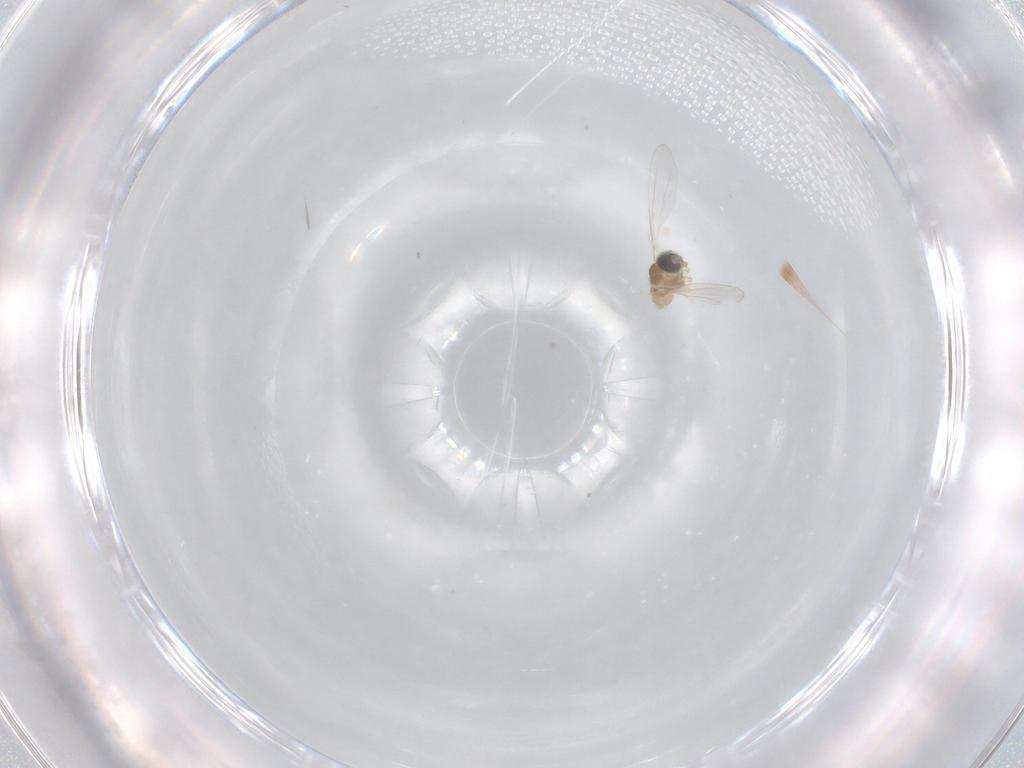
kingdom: Animalia
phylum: Arthropoda
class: Insecta
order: Diptera
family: Cecidomyiidae
